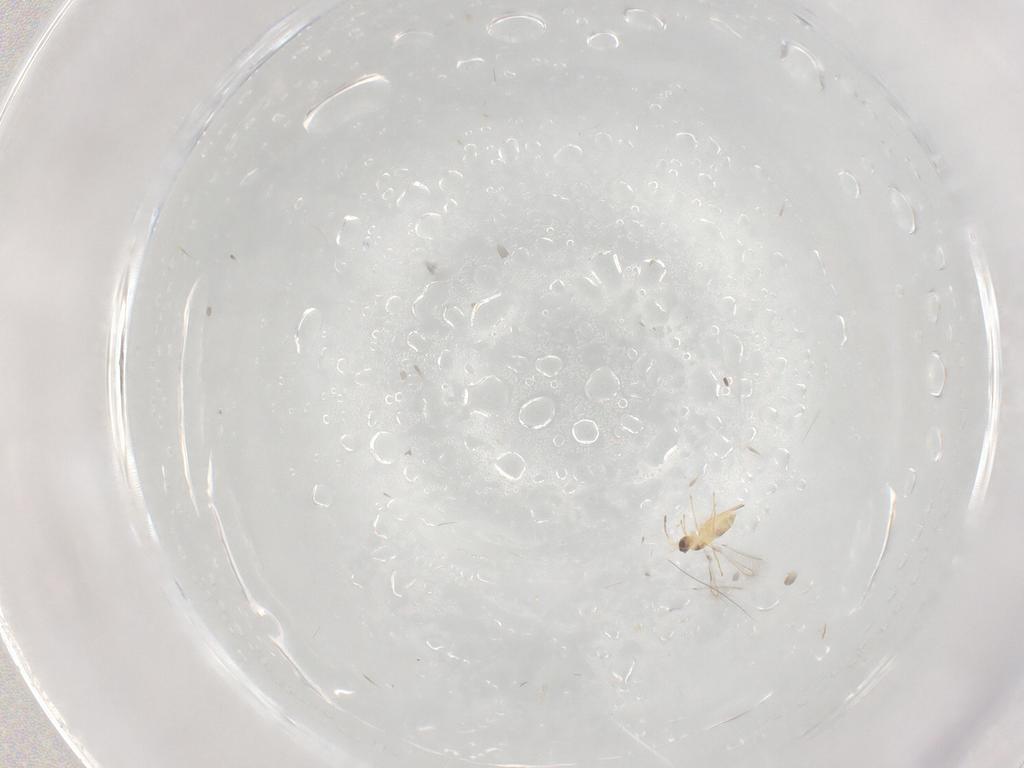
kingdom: Animalia
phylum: Arthropoda
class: Insecta
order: Hymenoptera
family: Mymaridae
